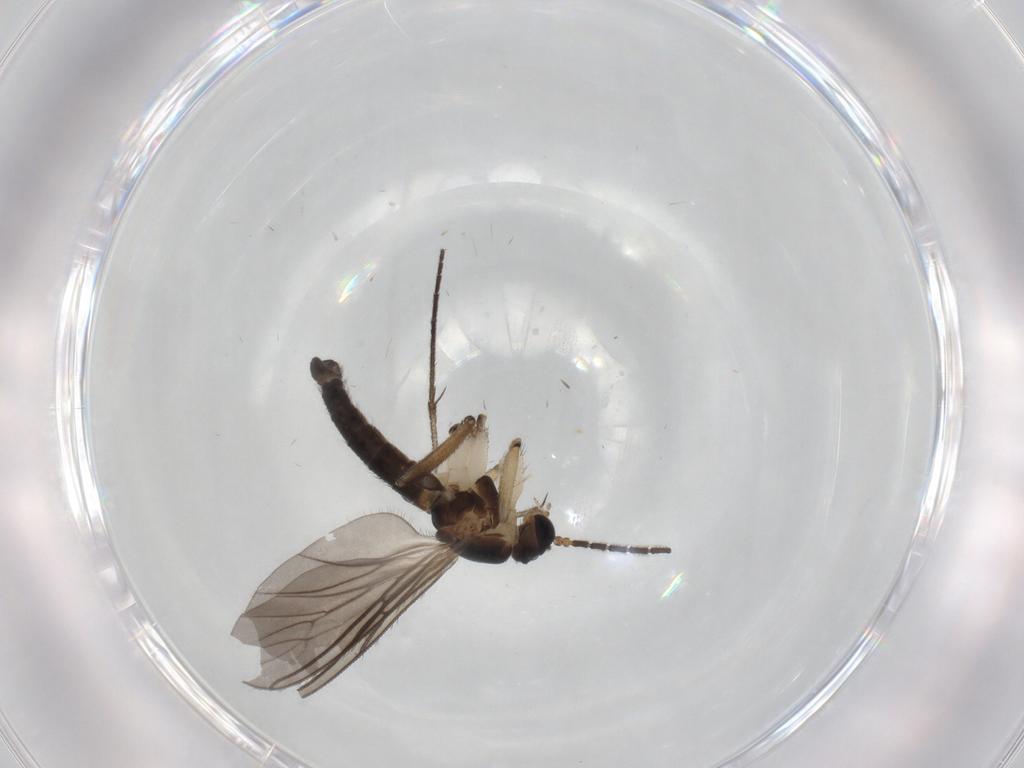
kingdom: Animalia
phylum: Arthropoda
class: Insecta
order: Diptera
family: Sciaridae
